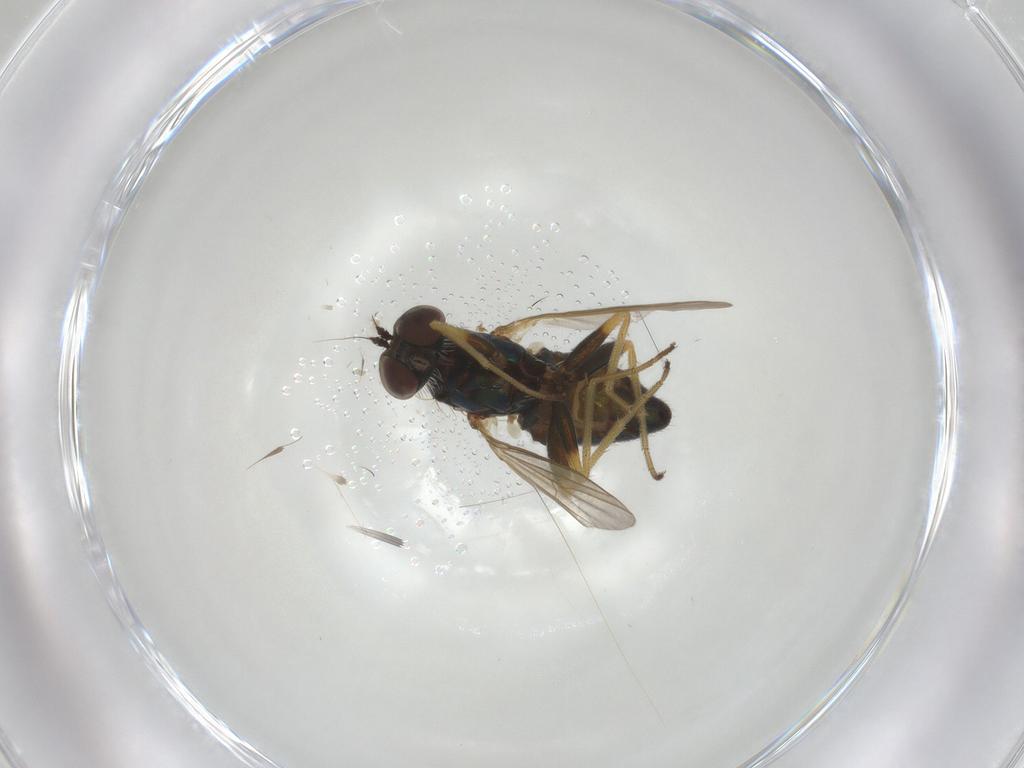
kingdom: Animalia
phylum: Arthropoda
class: Insecta
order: Diptera
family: Dolichopodidae
